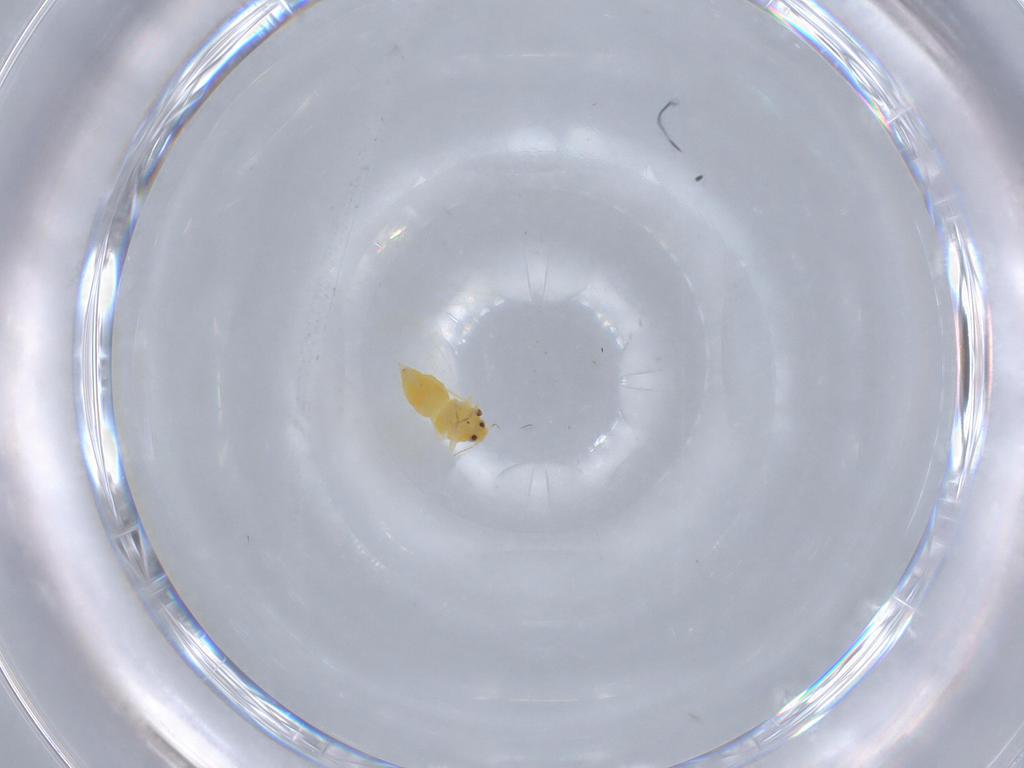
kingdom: Animalia
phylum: Arthropoda
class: Insecta
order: Hemiptera
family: Aleyrodidae
